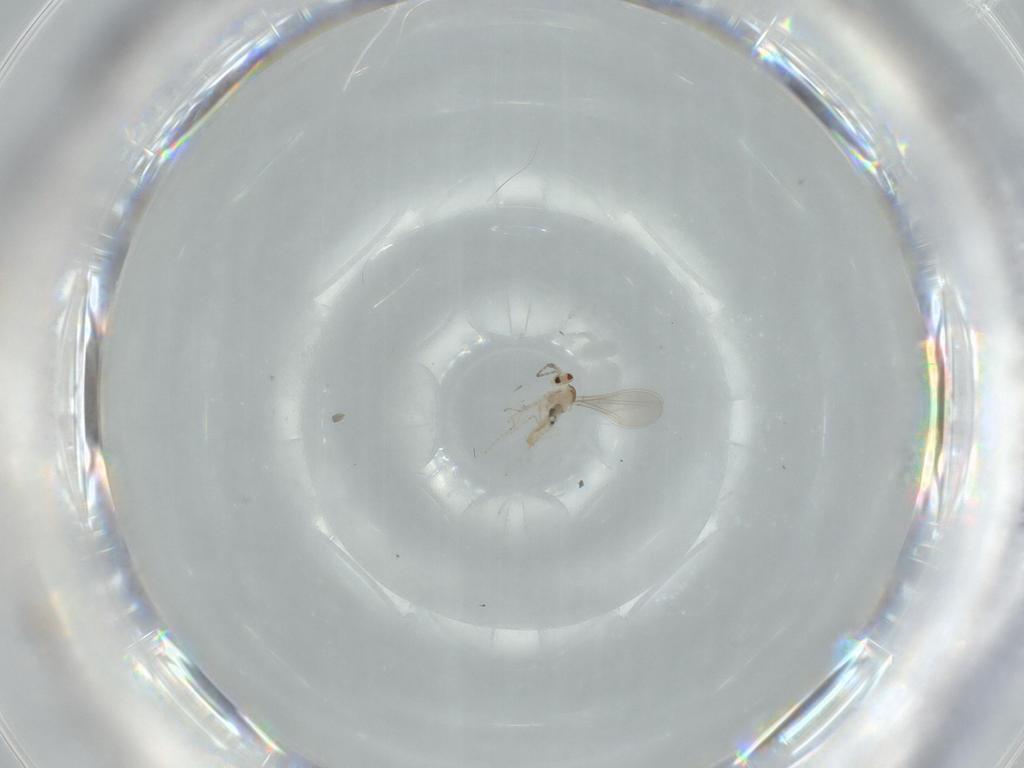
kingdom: Animalia
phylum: Arthropoda
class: Insecta
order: Diptera
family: Cecidomyiidae
